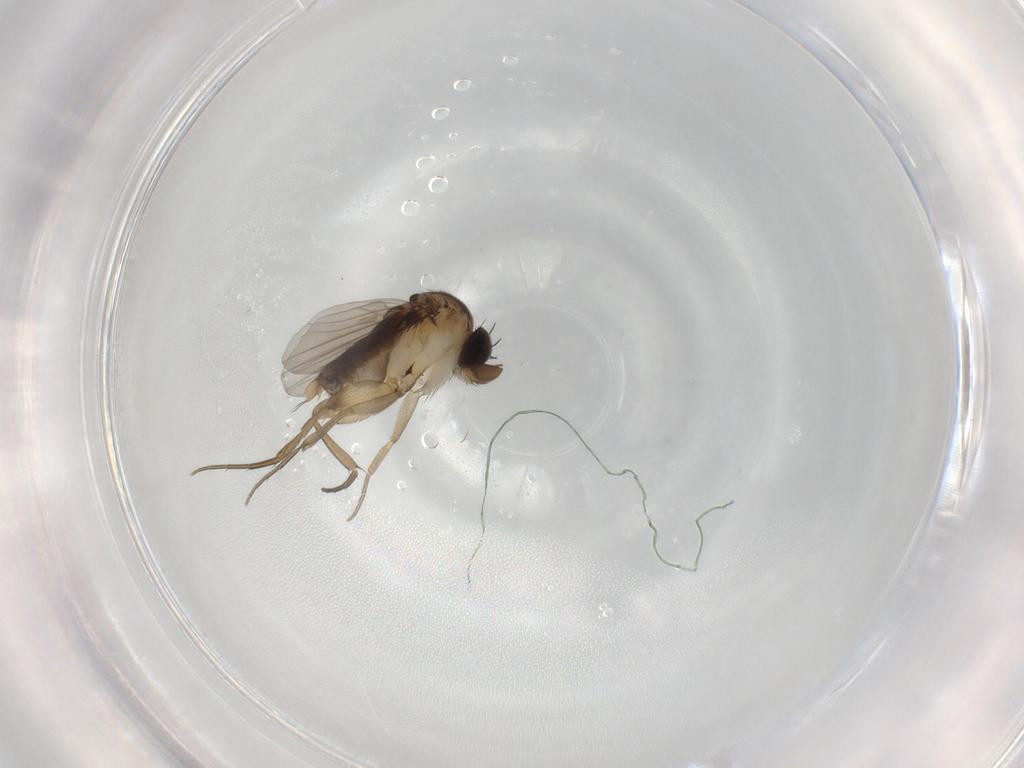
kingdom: Animalia
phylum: Arthropoda
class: Insecta
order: Diptera
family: Phoridae
